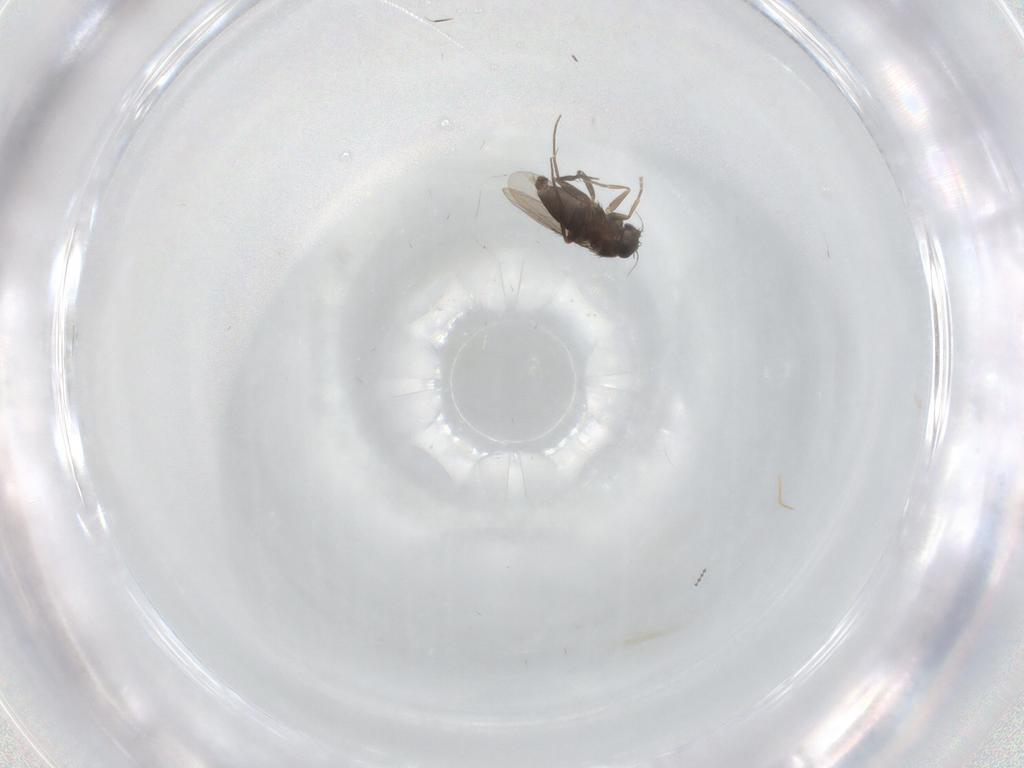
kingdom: Animalia
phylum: Arthropoda
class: Insecta
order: Diptera
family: Phoridae
